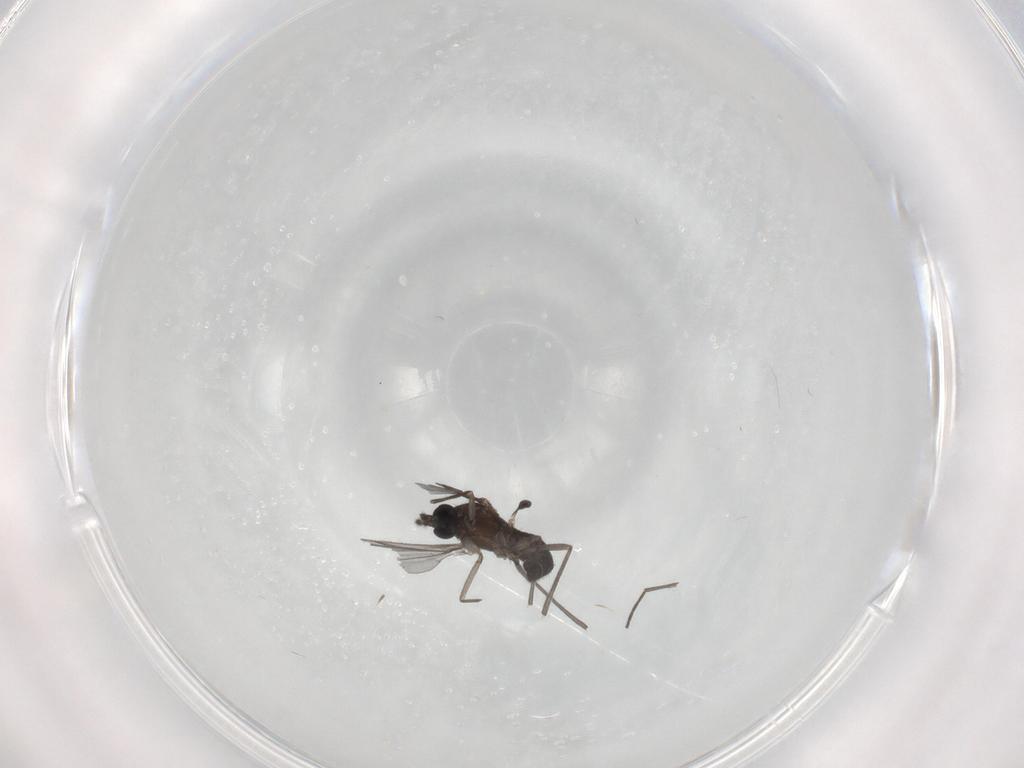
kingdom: Animalia
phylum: Arthropoda
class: Insecta
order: Diptera
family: Sciaridae
